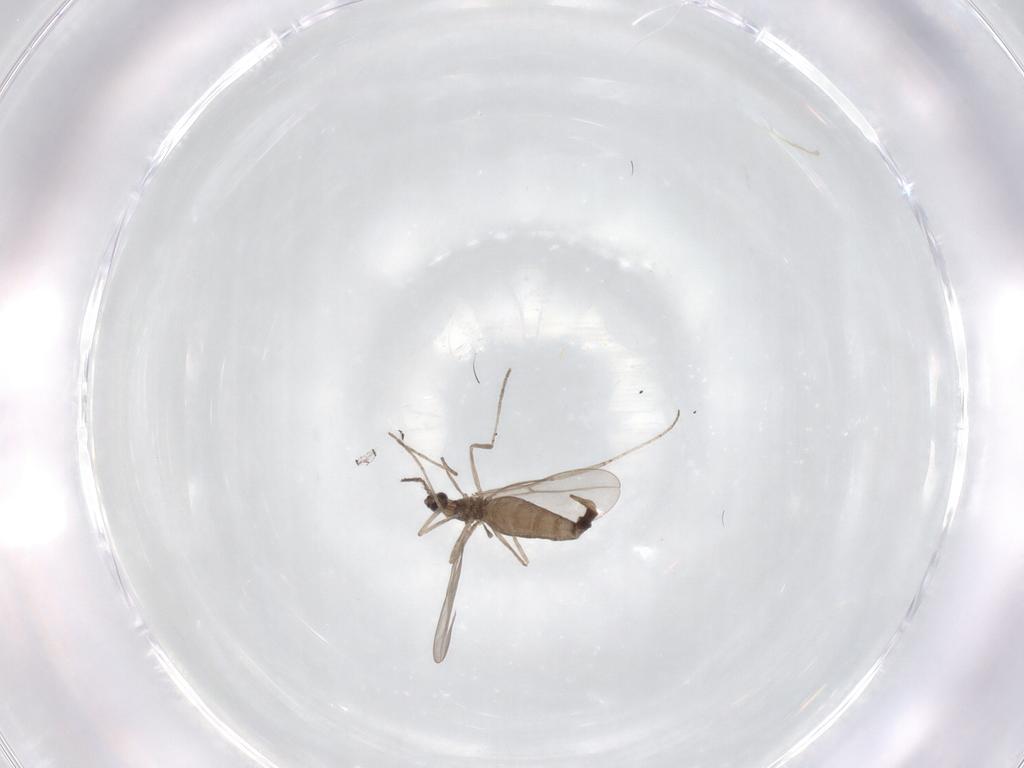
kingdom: Animalia
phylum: Arthropoda
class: Insecta
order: Diptera
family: Cecidomyiidae
